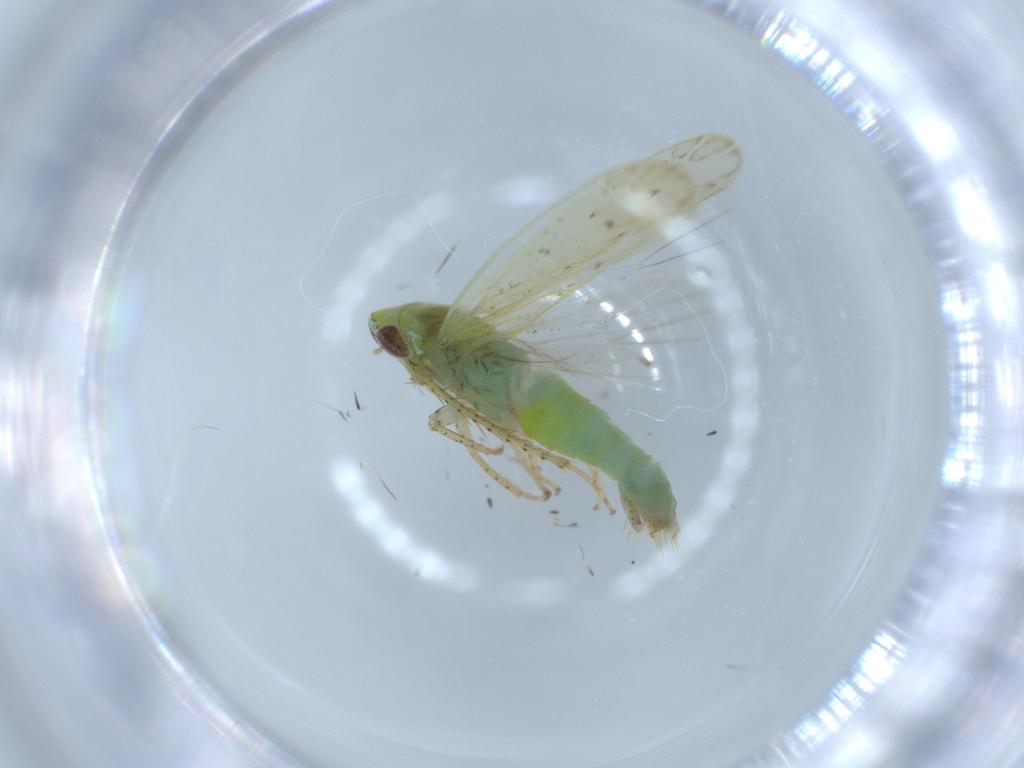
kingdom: Animalia
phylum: Arthropoda
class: Insecta
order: Hemiptera
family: Cicadellidae
